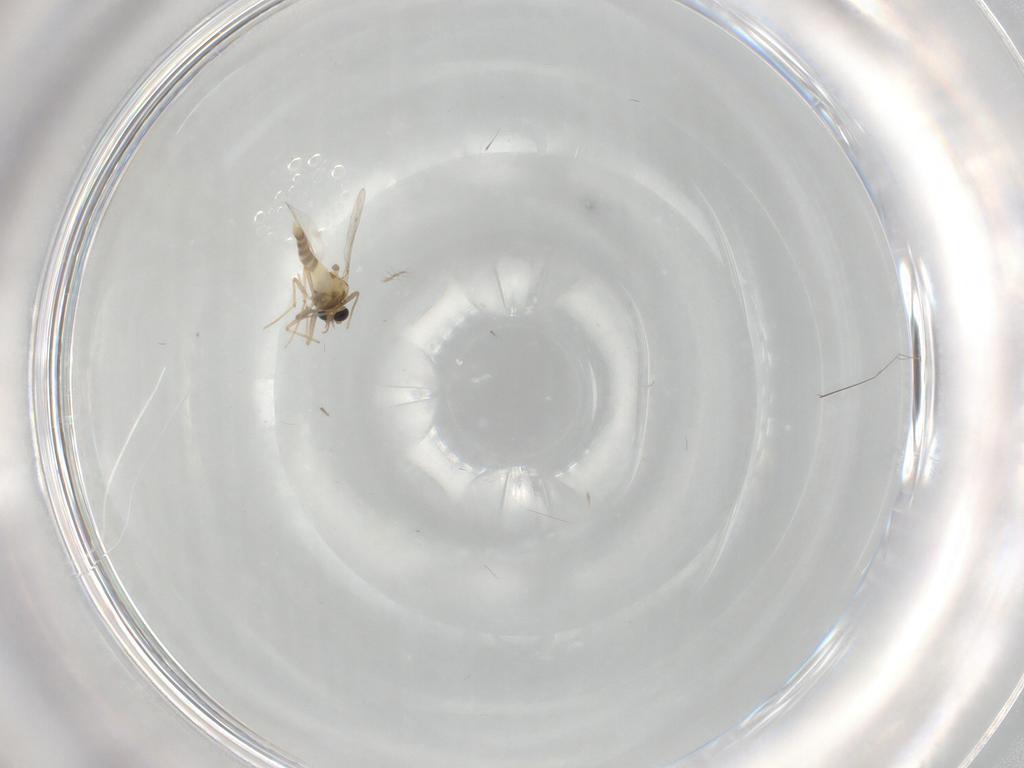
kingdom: Animalia
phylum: Arthropoda
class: Insecta
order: Diptera
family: Chironomidae
